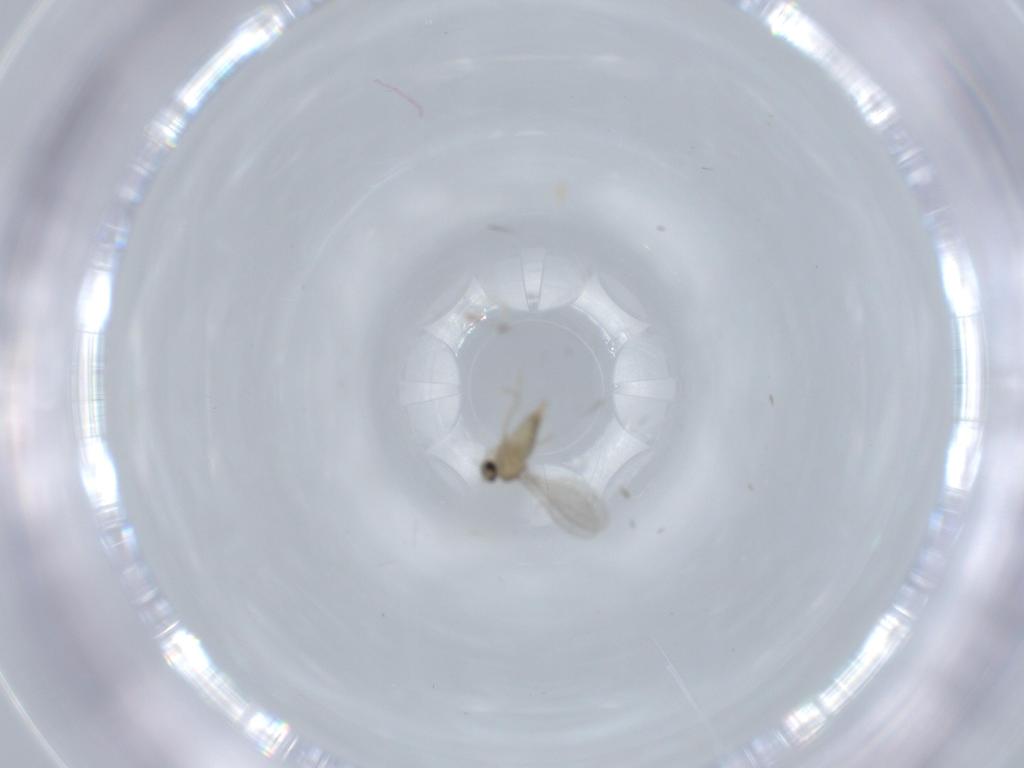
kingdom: Animalia
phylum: Arthropoda
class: Insecta
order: Diptera
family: Cecidomyiidae
